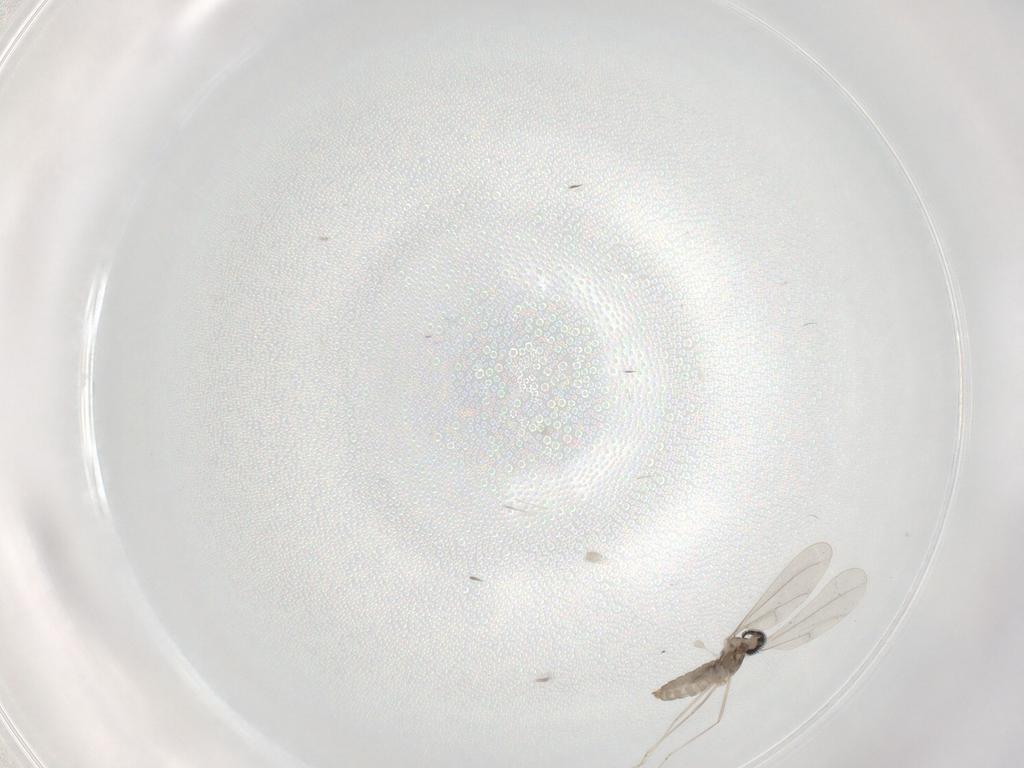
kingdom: Animalia
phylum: Arthropoda
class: Insecta
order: Diptera
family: Cecidomyiidae
